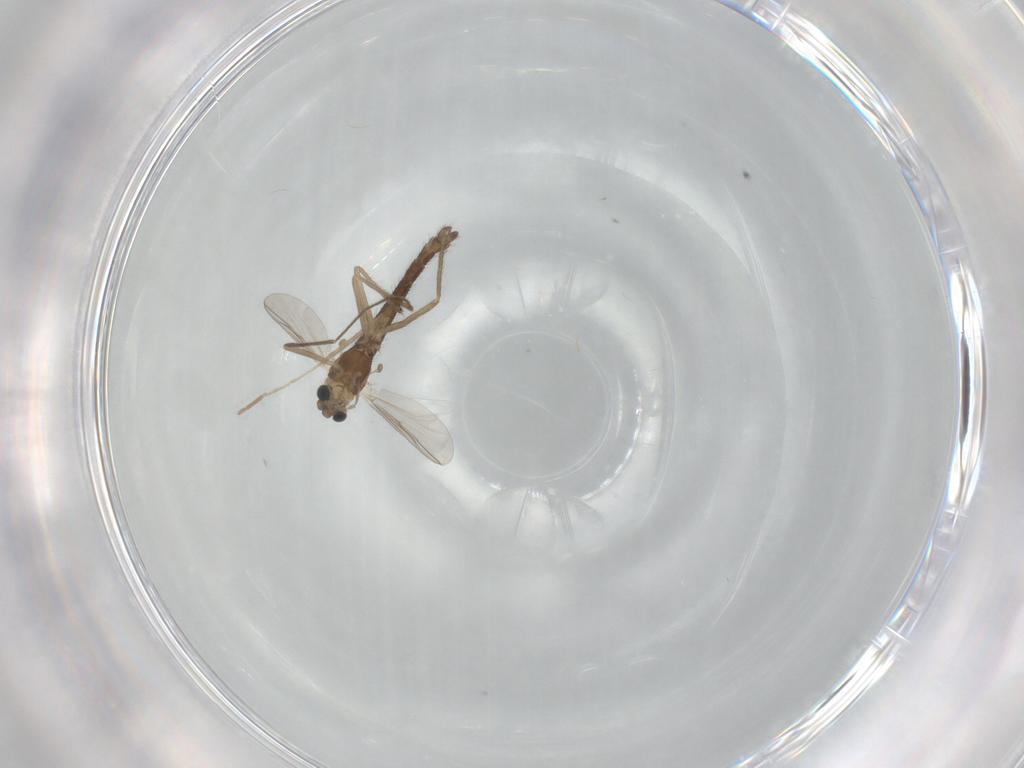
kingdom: Animalia
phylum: Arthropoda
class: Insecta
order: Diptera
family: Chironomidae
